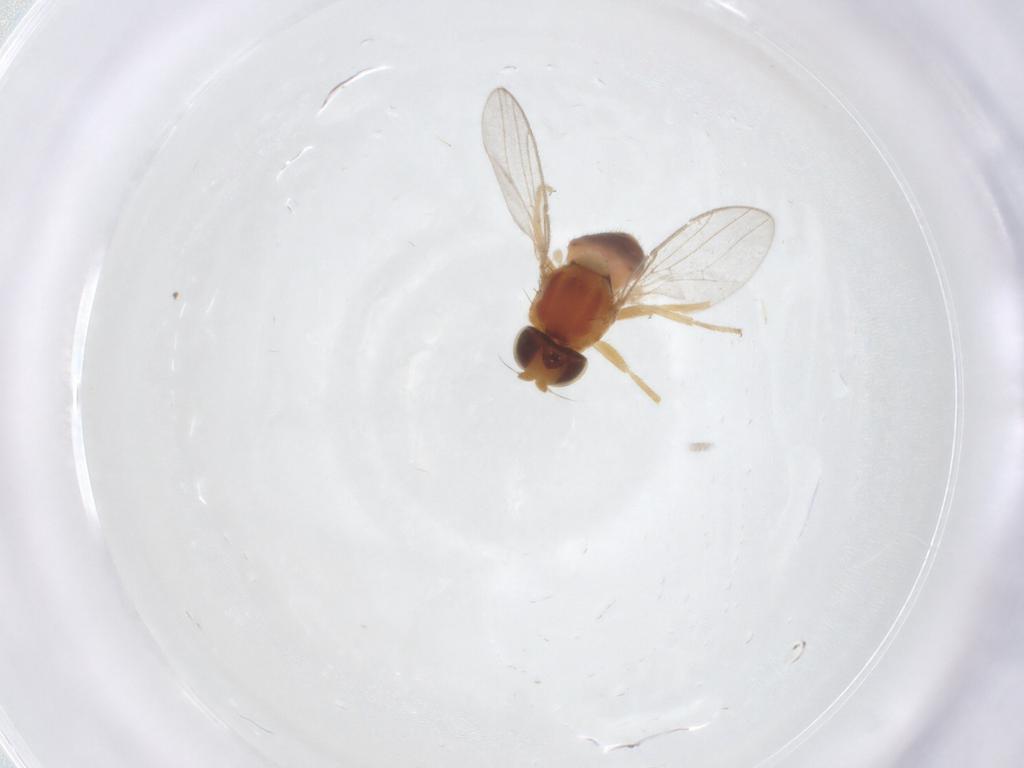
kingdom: Animalia
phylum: Arthropoda
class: Insecta
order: Diptera
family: Chloropidae
